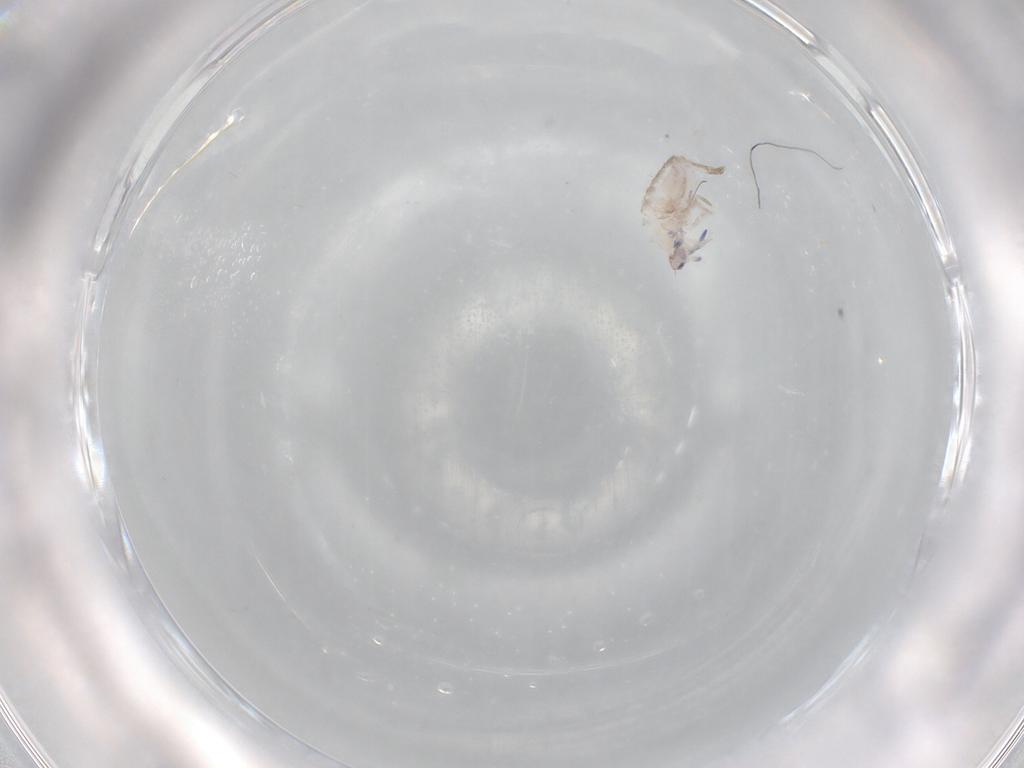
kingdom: Animalia
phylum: Arthropoda
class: Collembola
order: Entomobryomorpha
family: Entomobryidae
